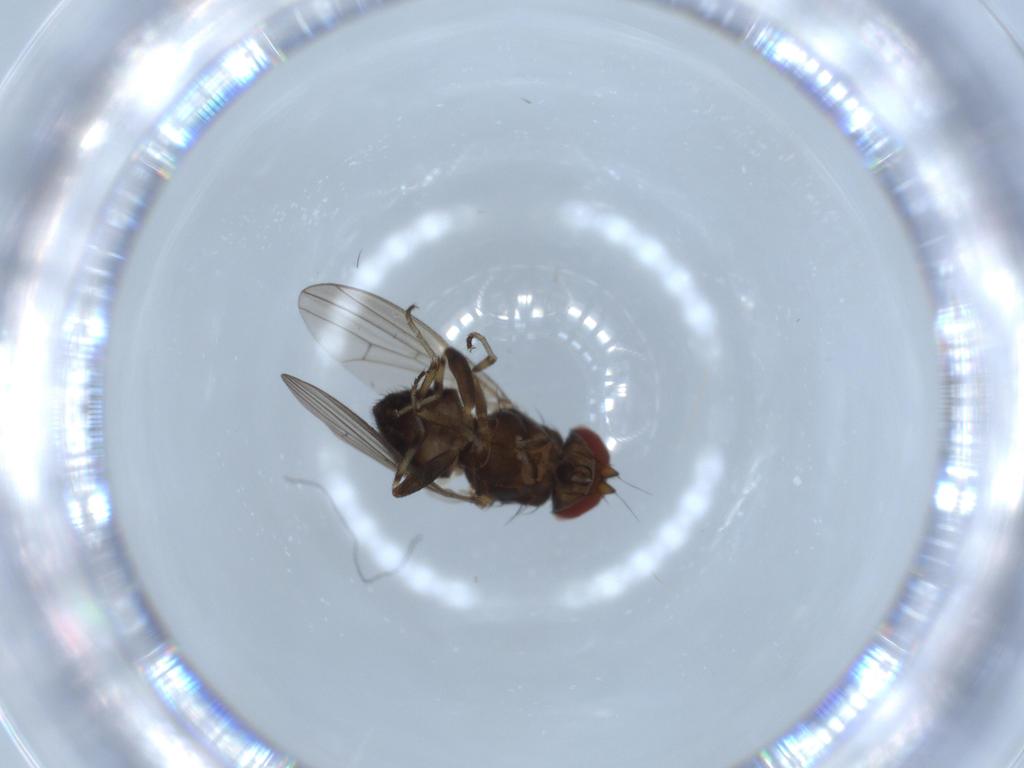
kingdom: Animalia
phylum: Arthropoda
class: Insecta
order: Diptera
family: Heleomyzidae
